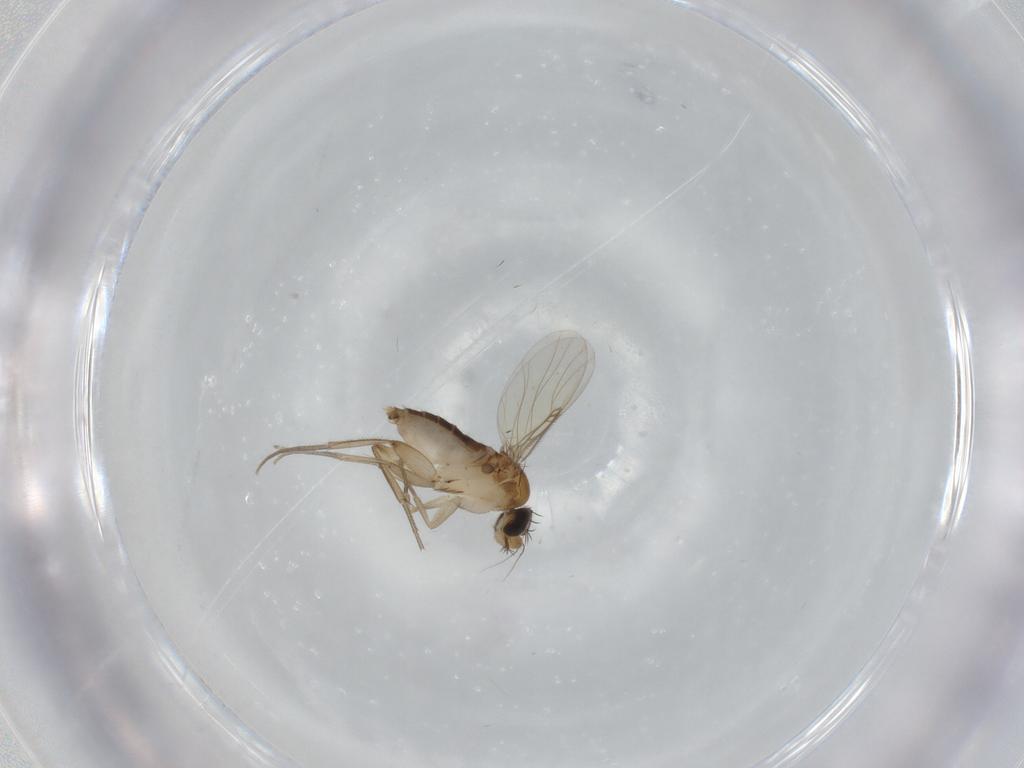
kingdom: Animalia
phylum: Arthropoda
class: Insecta
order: Diptera
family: Phoridae
